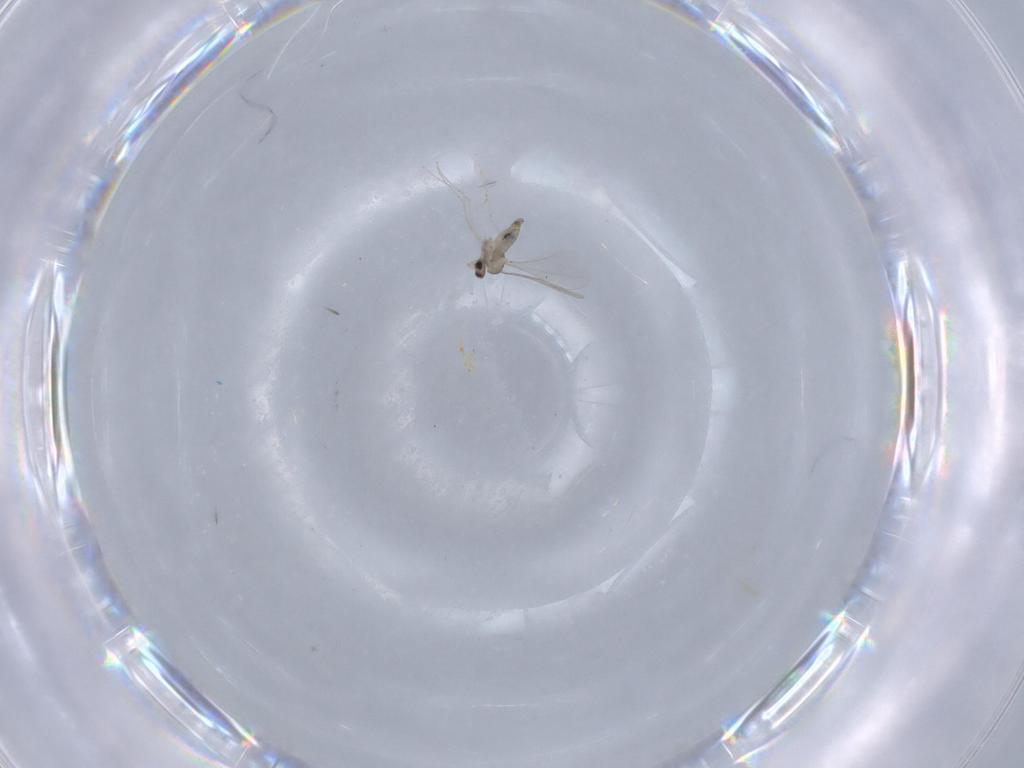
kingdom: Animalia
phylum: Arthropoda
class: Insecta
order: Diptera
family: Cecidomyiidae
